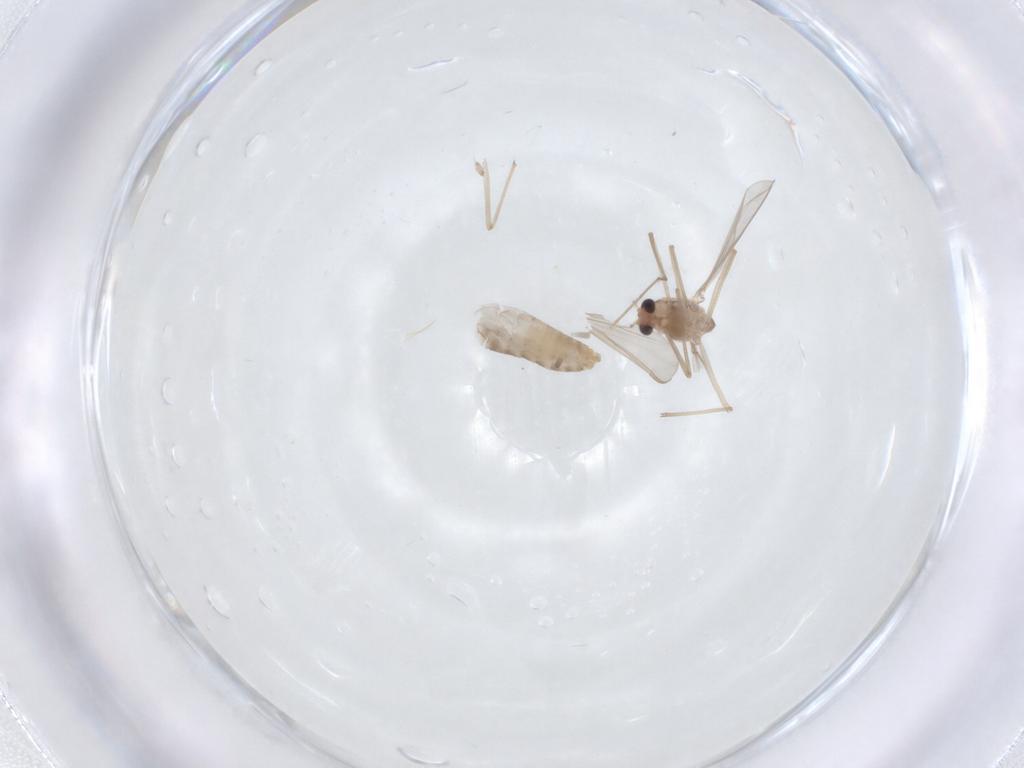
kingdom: Animalia
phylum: Arthropoda
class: Insecta
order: Diptera
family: Chironomidae
